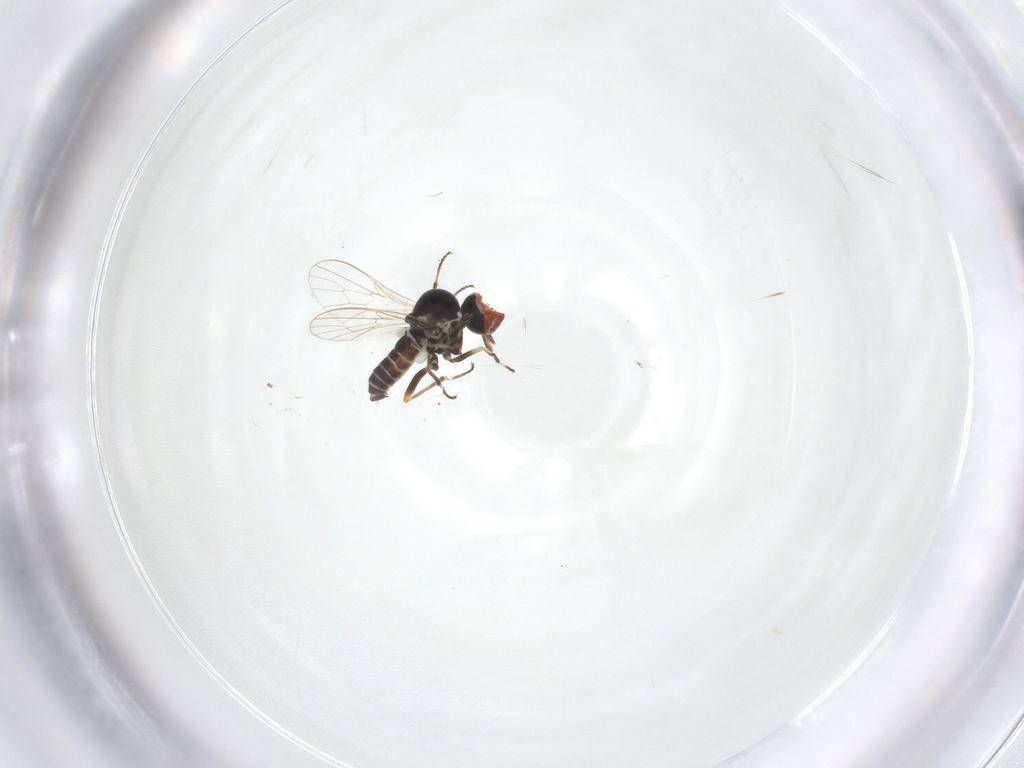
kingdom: Animalia
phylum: Arthropoda
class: Insecta
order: Diptera
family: Mythicomyiidae
